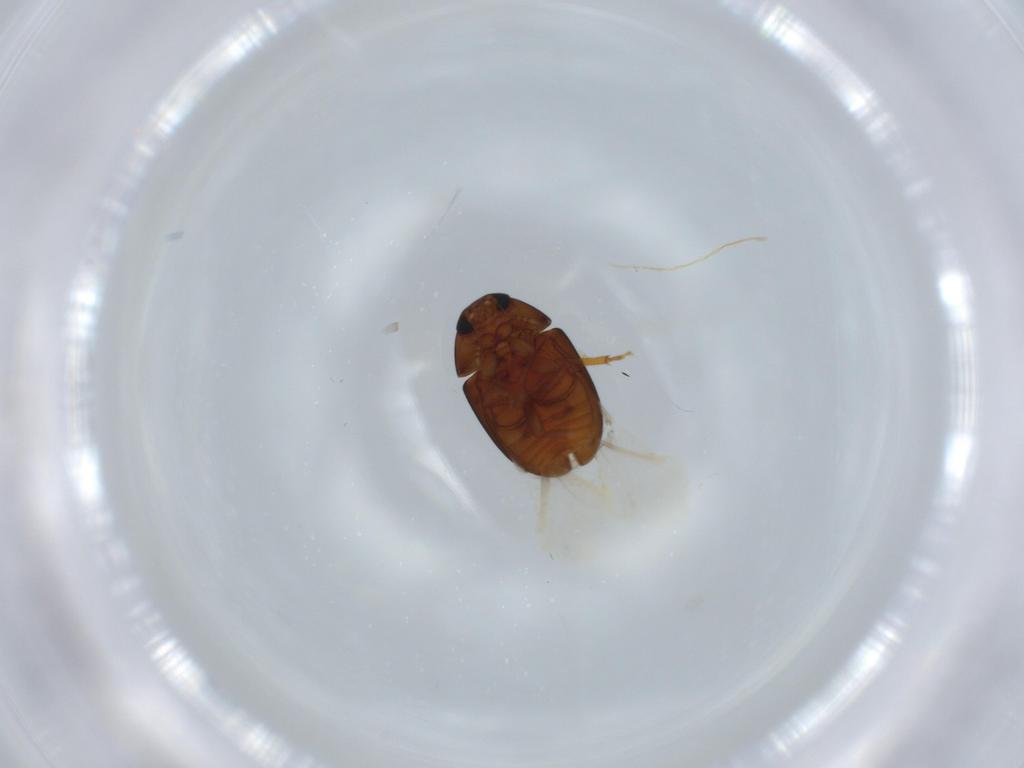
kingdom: Animalia
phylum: Arthropoda
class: Insecta
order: Coleoptera
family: Phalacridae
